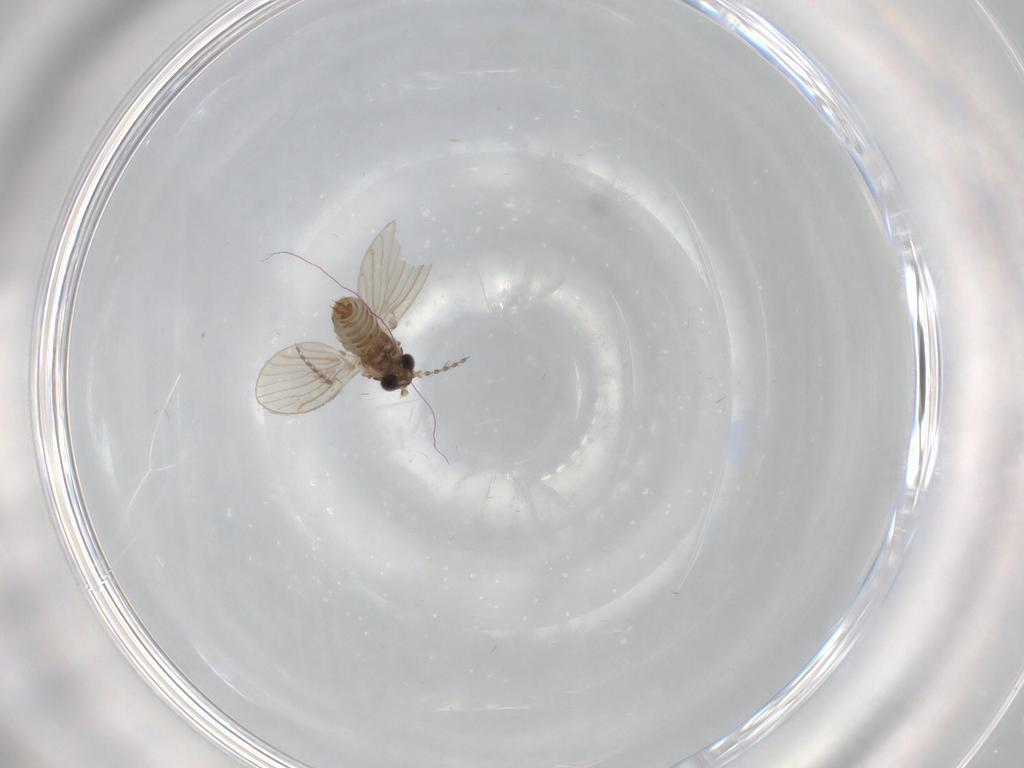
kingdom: Animalia
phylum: Arthropoda
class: Insecta
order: Diptera
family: Psychodidae
